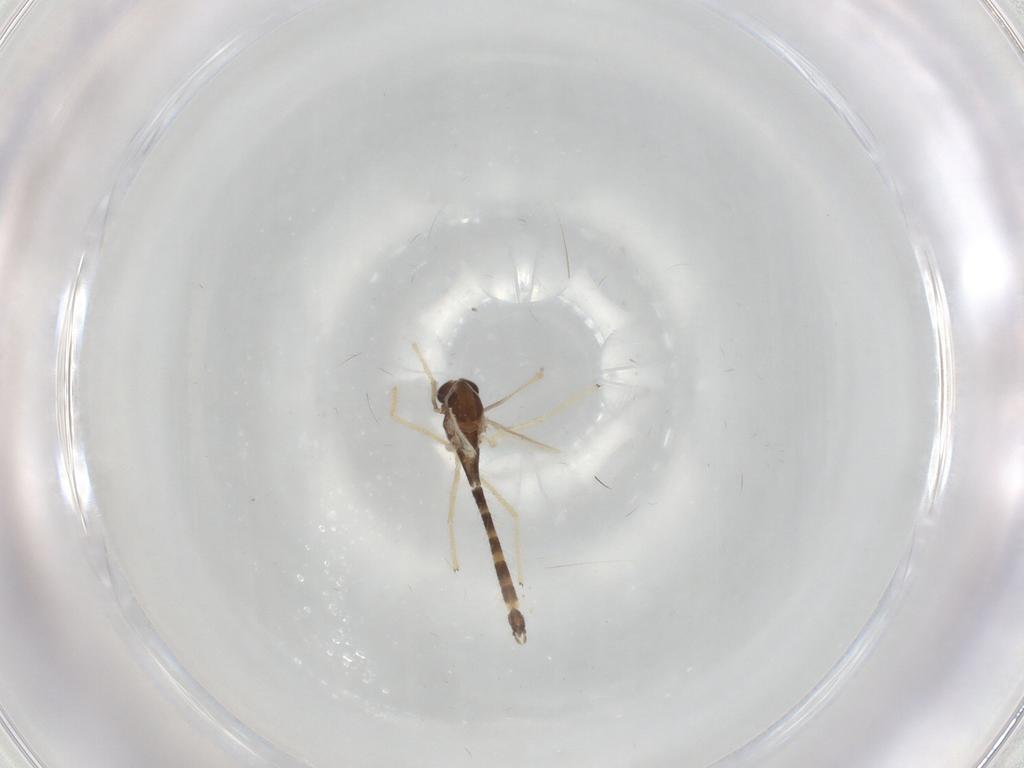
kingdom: Animalia
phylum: Arthropoda
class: Insecta
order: Diptera
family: Chironomidae
